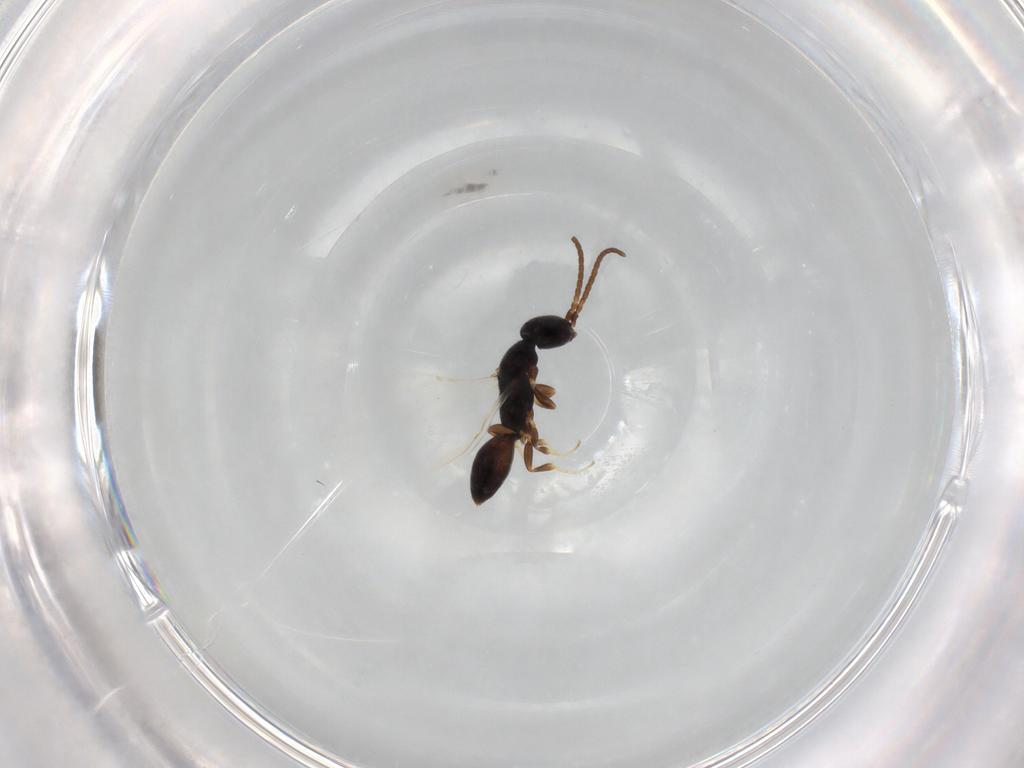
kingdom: Animalia
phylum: Arthropoda
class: Insecta
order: Hymenoptera
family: Bethylidae
